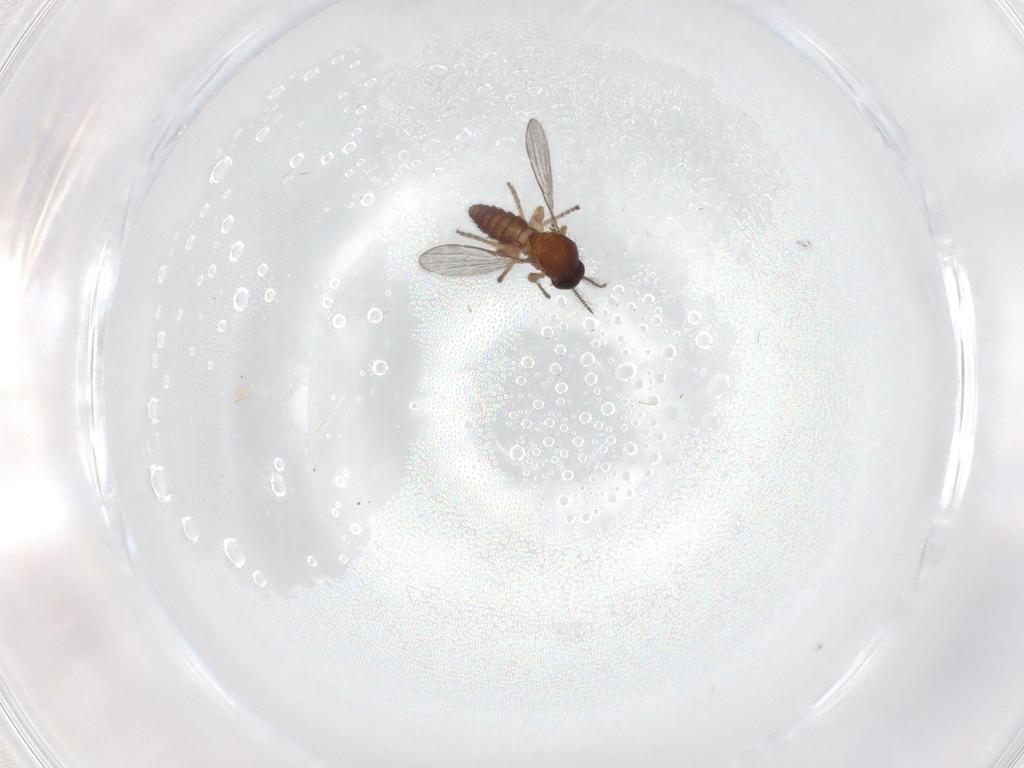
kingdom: Animalia
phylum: Arthropoda
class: Insecta
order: Diptera
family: Ceratopogonidae
